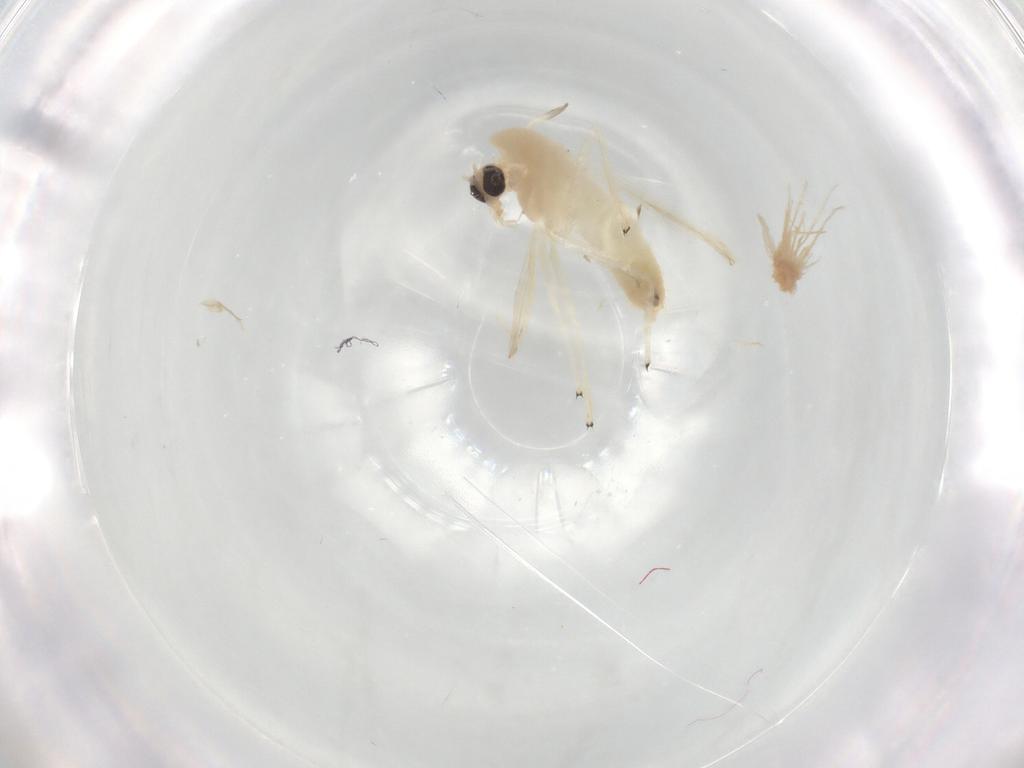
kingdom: Animalia
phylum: Arthropoda
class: Insecta
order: Diptera
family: Chironomidae
